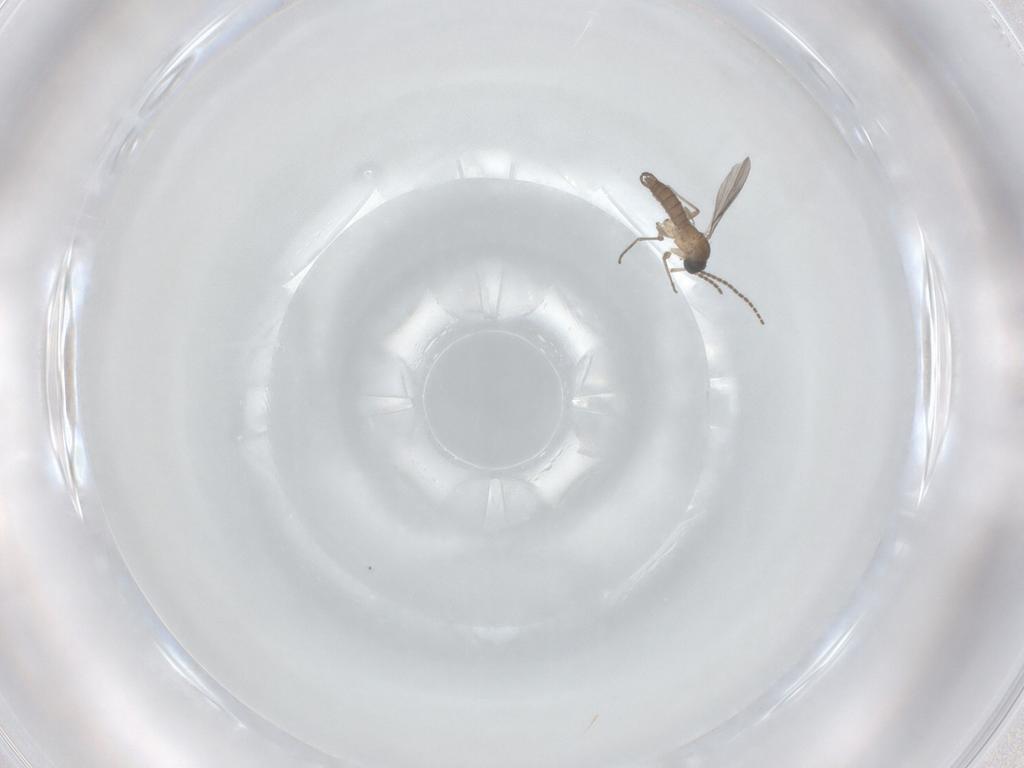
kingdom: Animalia
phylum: Arthropoda
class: Insecta
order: Diptera
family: Sciaridae
